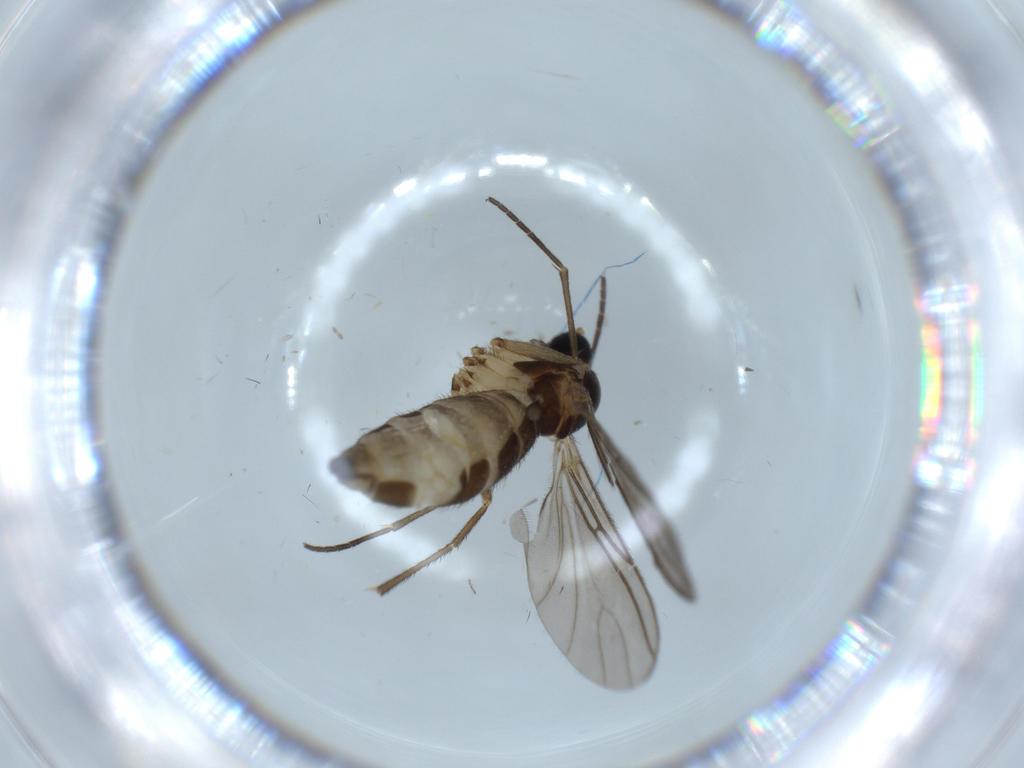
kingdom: Animalia
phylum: Arthropoda
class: Insecta
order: Diptera
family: Sciaridae
